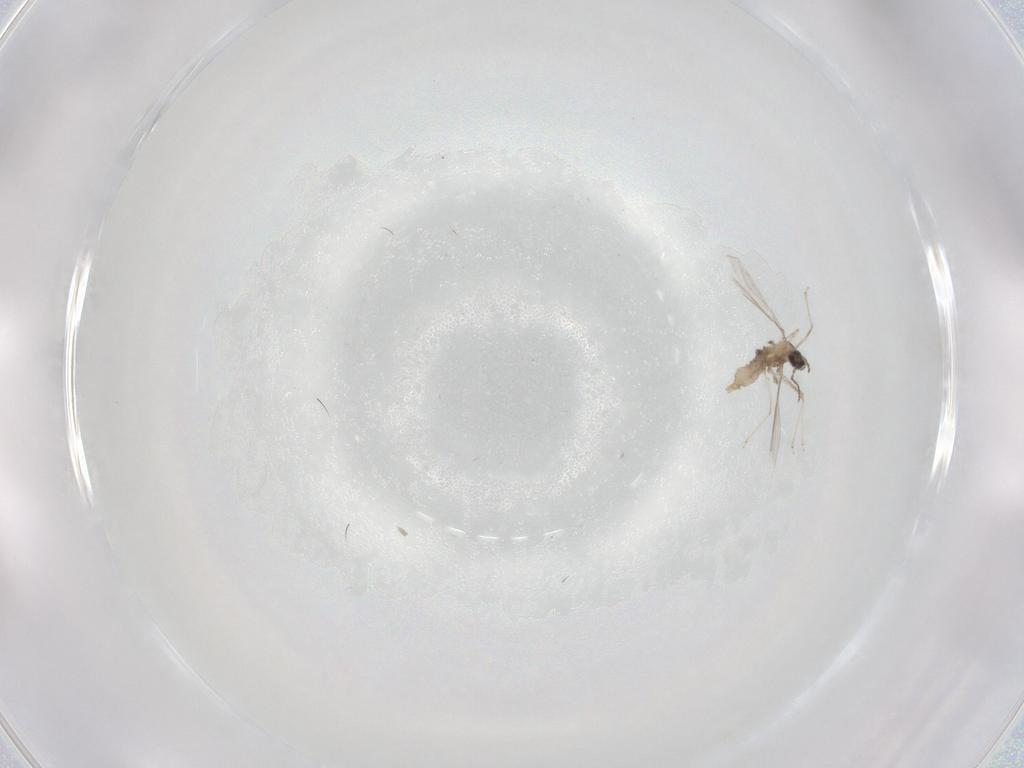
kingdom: Animalia
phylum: Arthropoda
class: Insecta
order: Diptera
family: Cecidomyiidae
